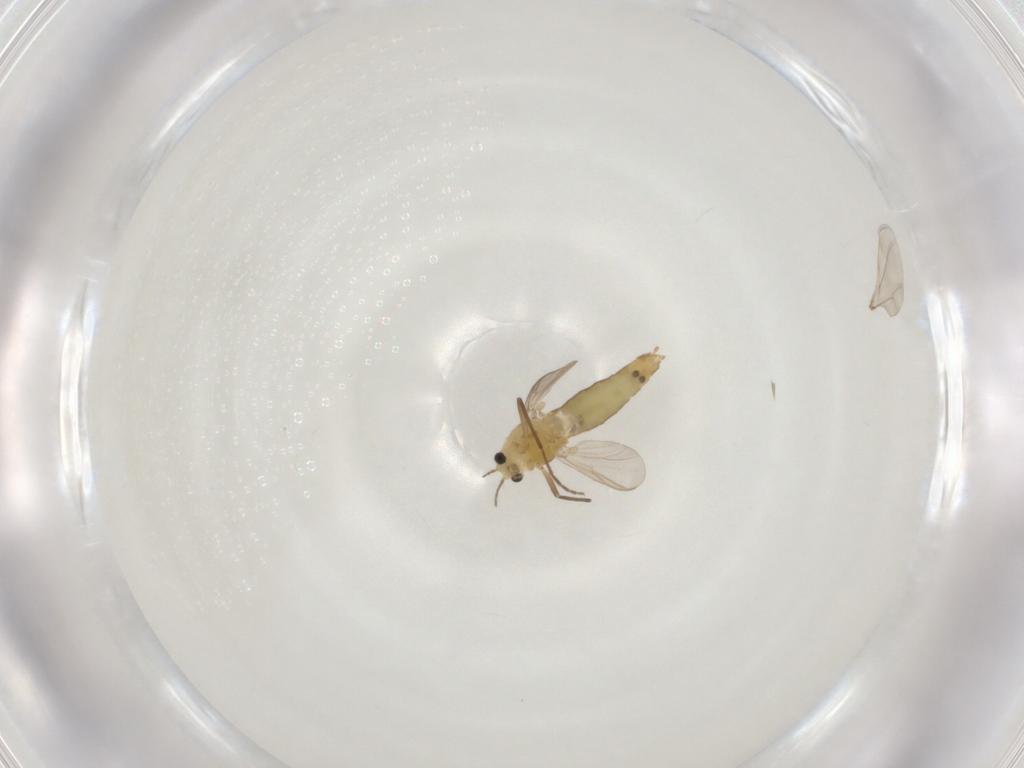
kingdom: Animalia
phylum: Arthropoda
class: Insecta
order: Diptera
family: Chironomidae
